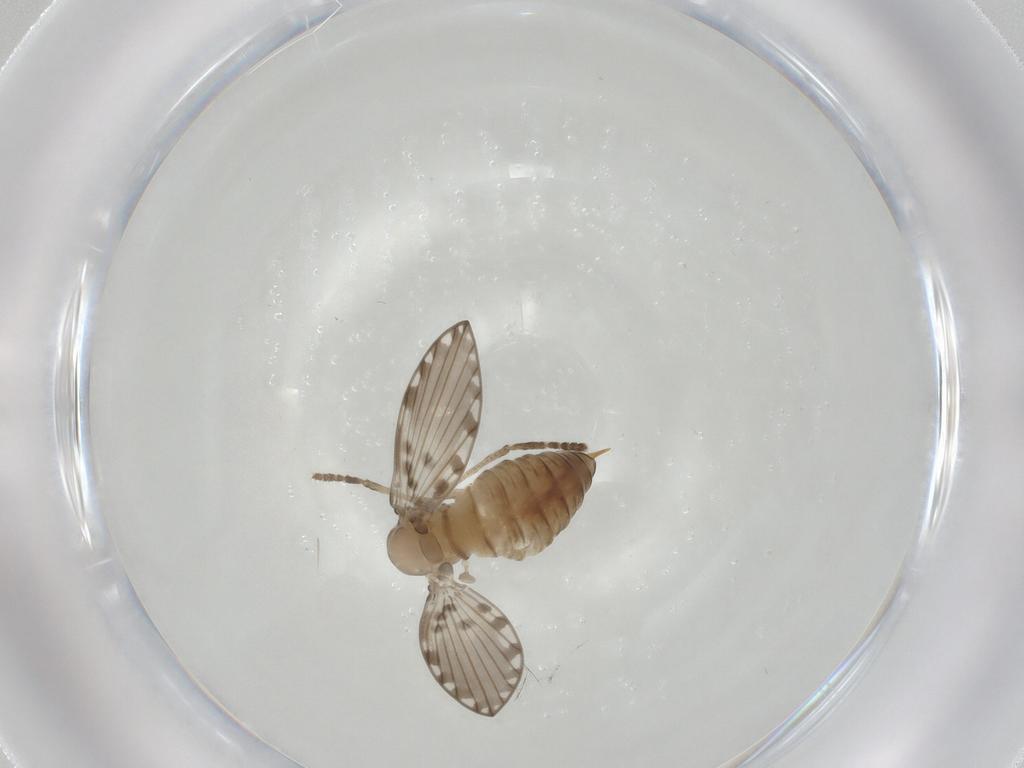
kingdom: Animalia
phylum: Arthropoda
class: Insecta
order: Diptera
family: Psychodidae
